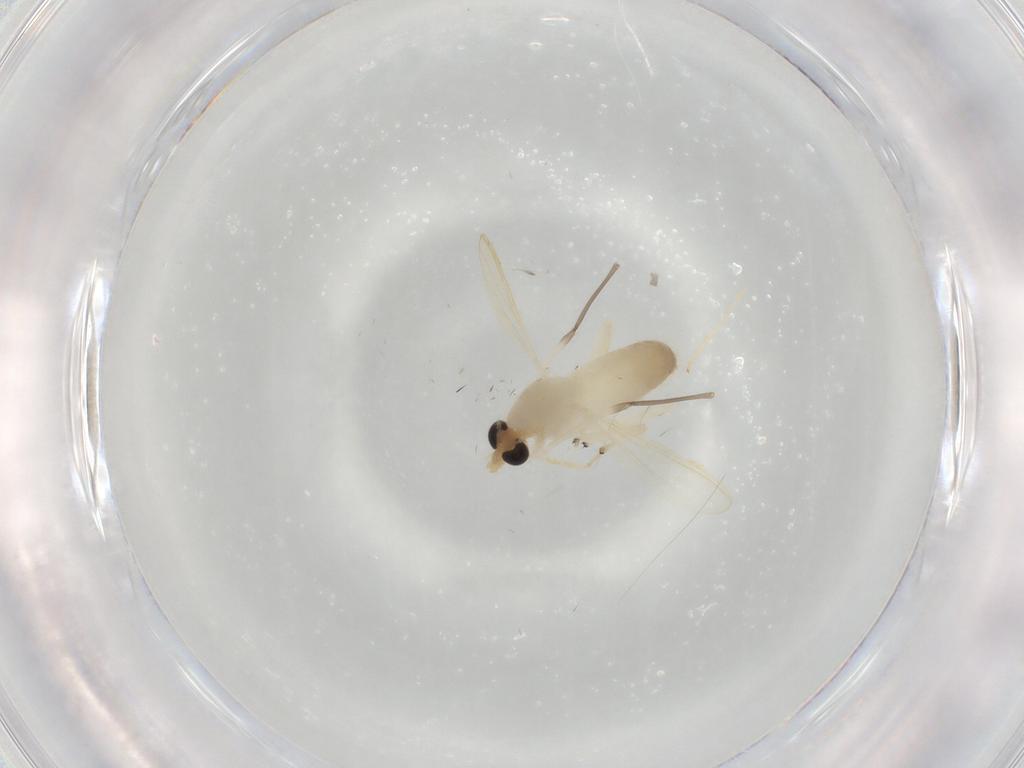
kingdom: Animalia
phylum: Arthropoda
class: Insecta
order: Diptera
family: Chironomidae
